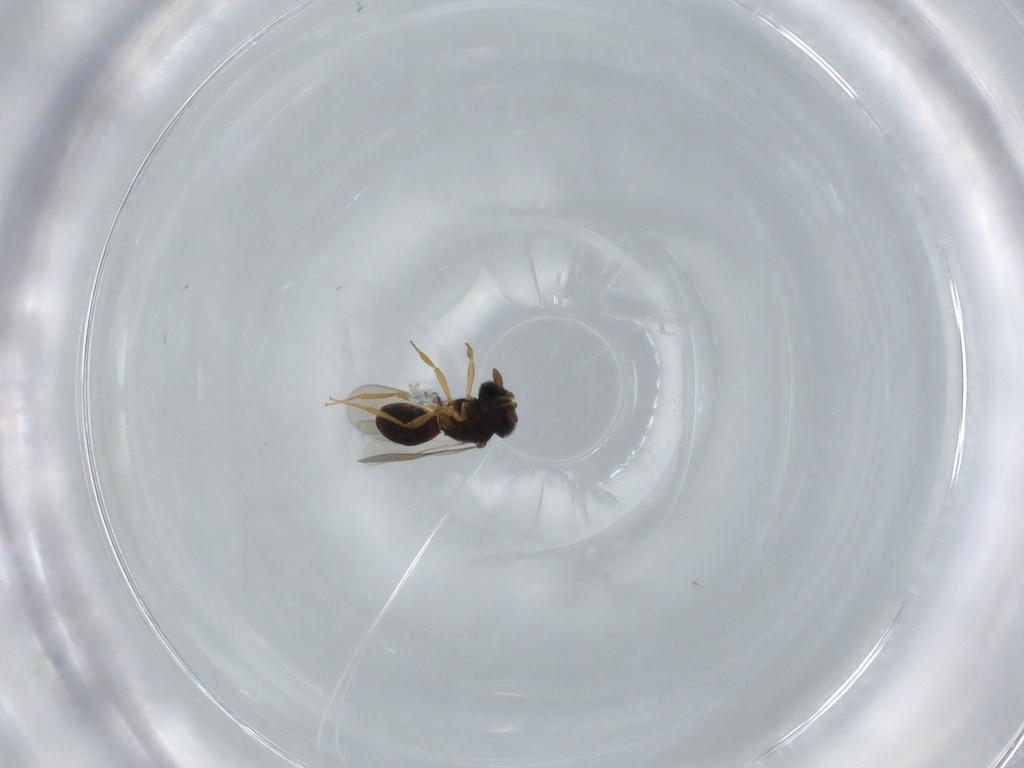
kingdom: Animalia
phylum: Arthropoda
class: Insecta
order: Hymenoptera
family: Scelionidae
